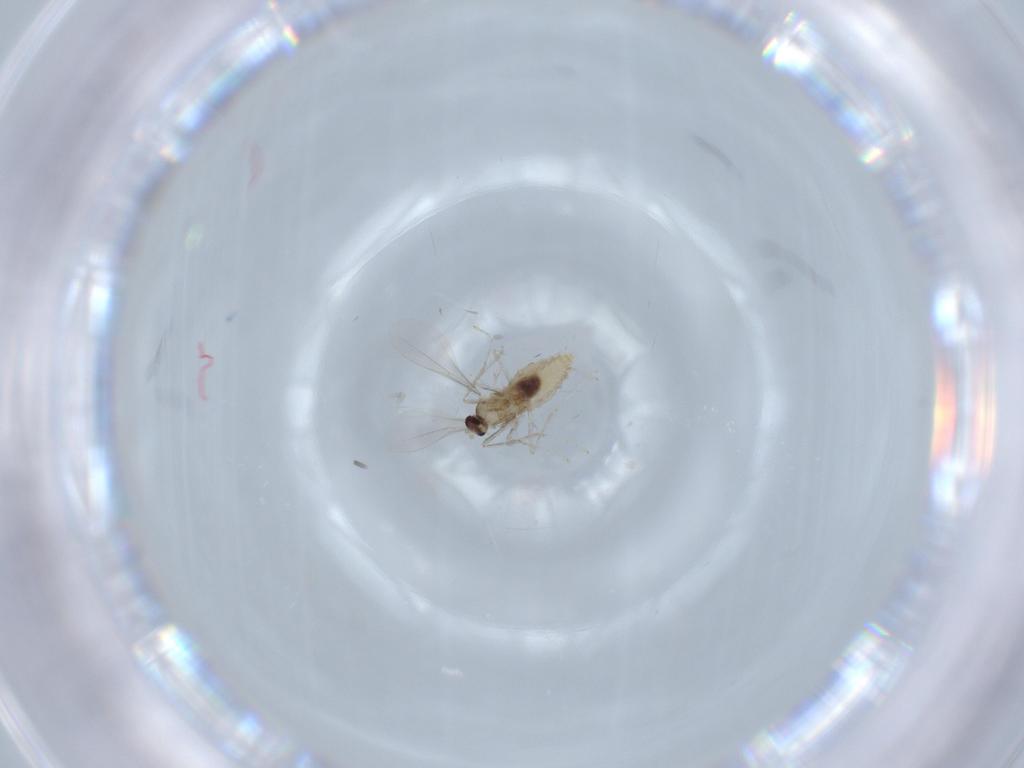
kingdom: Animalia
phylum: Arthropoda
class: Insecta
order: Diptera
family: Cecidomyiidae
